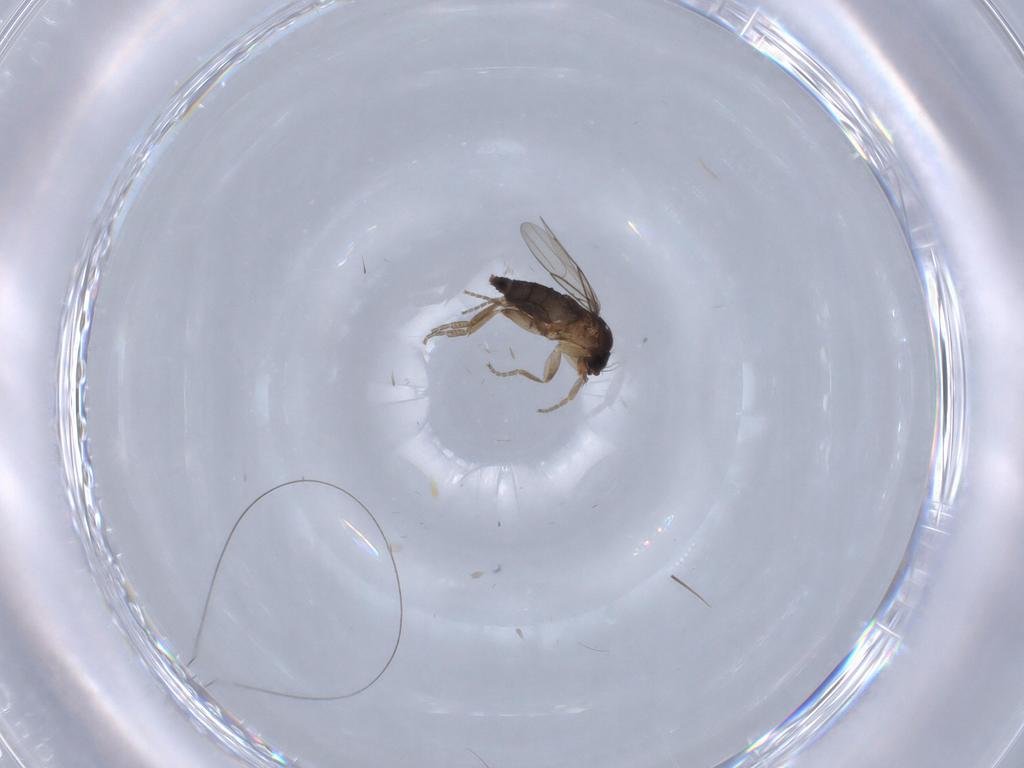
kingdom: Animalia
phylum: Arthropoda
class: Insecta
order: Diptera
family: Phoridae
